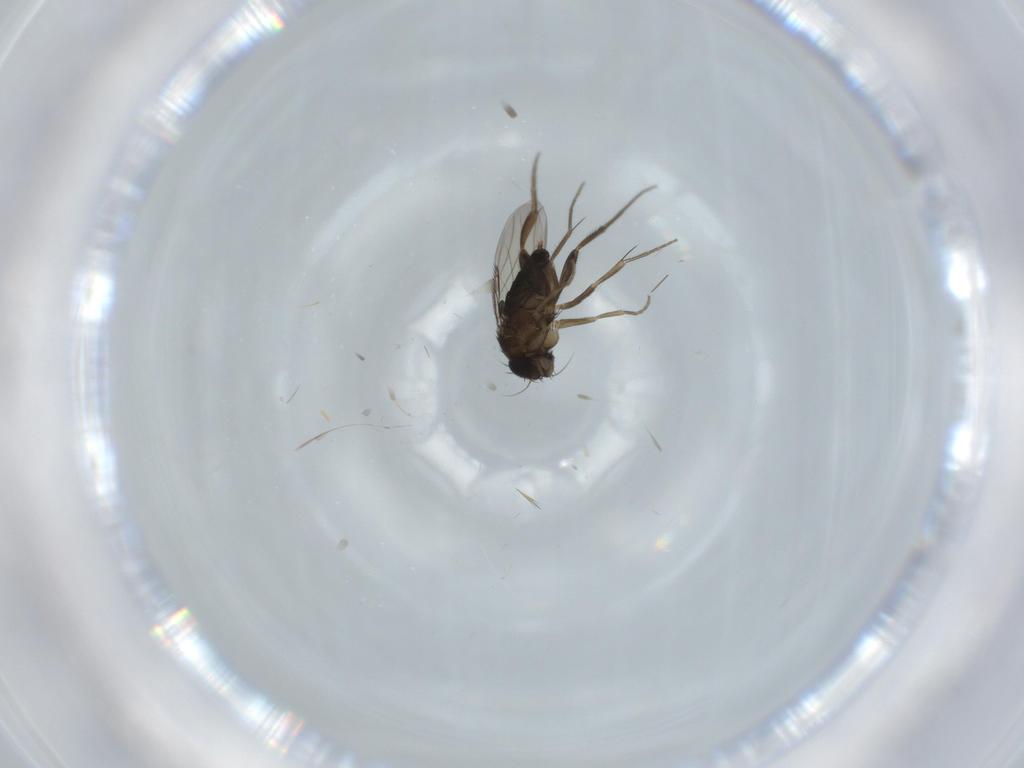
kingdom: Animalia
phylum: Arthropoda
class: Insecta
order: Diptera
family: Phoridae
